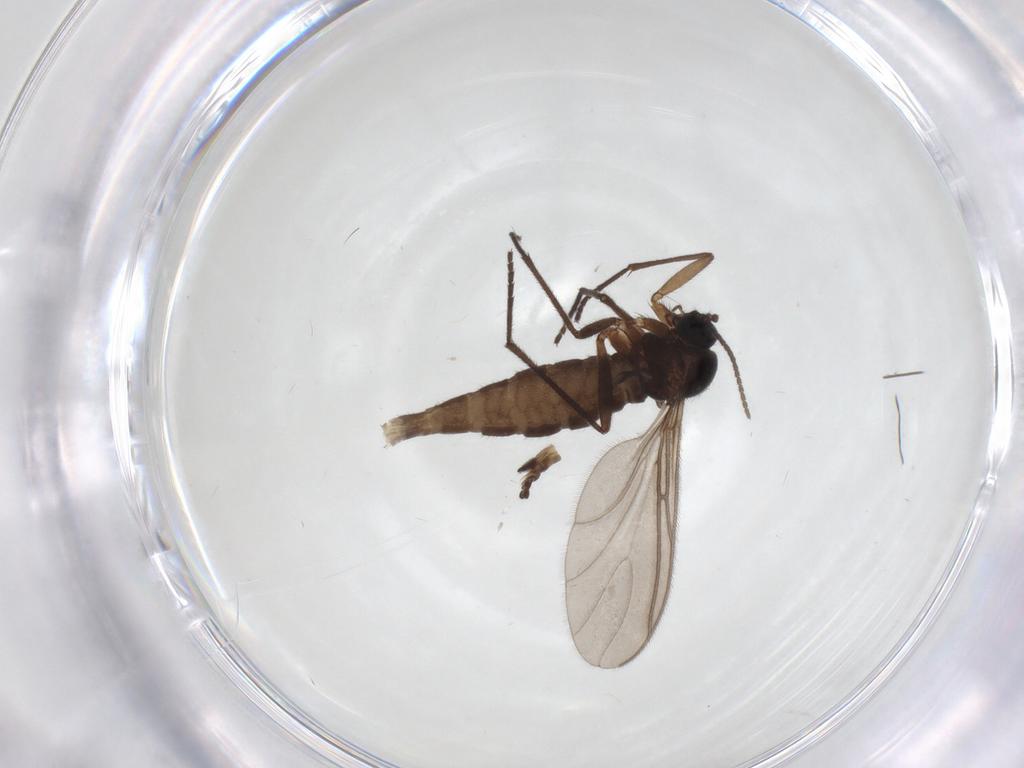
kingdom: Animalia
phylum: Arthropoda
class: Insecta
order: Diptera
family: Sciaridae
